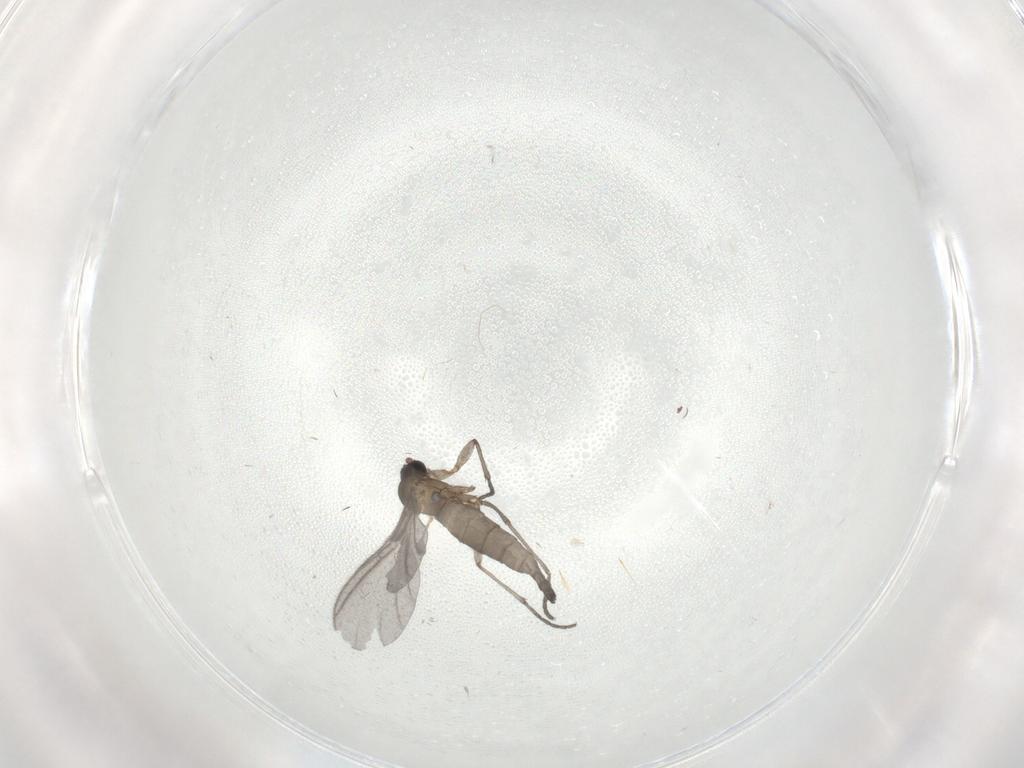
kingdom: Animalia
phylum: Arthropoda
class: Insecta
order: Diptera
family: Sciaridae
